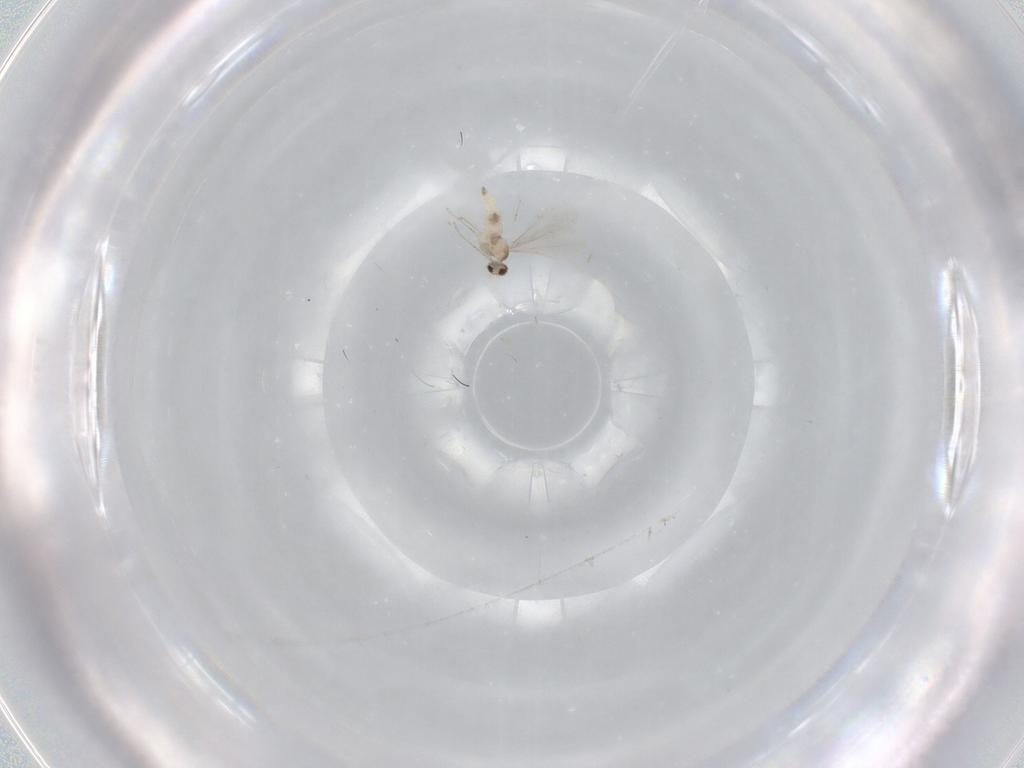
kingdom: Animalia
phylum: Arthropoda
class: Insecta
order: Diptera
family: Cecidomyiidae
